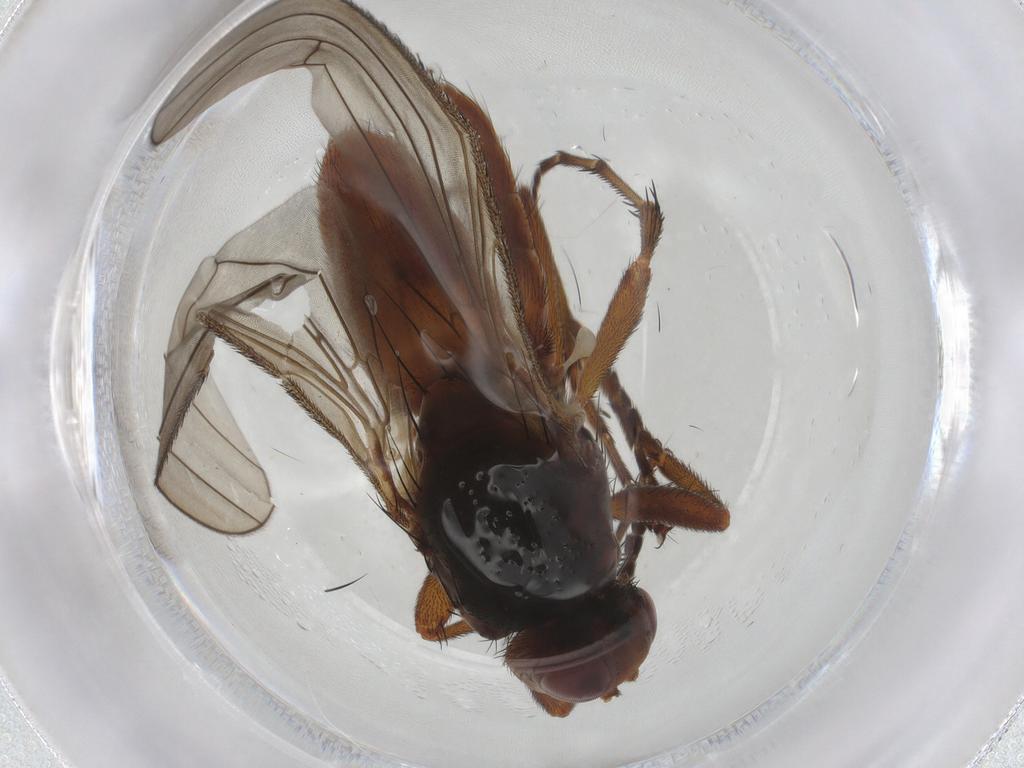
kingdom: Animalia
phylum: Arthropoda
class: Insecta
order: Diptera
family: Heleomyzidae
